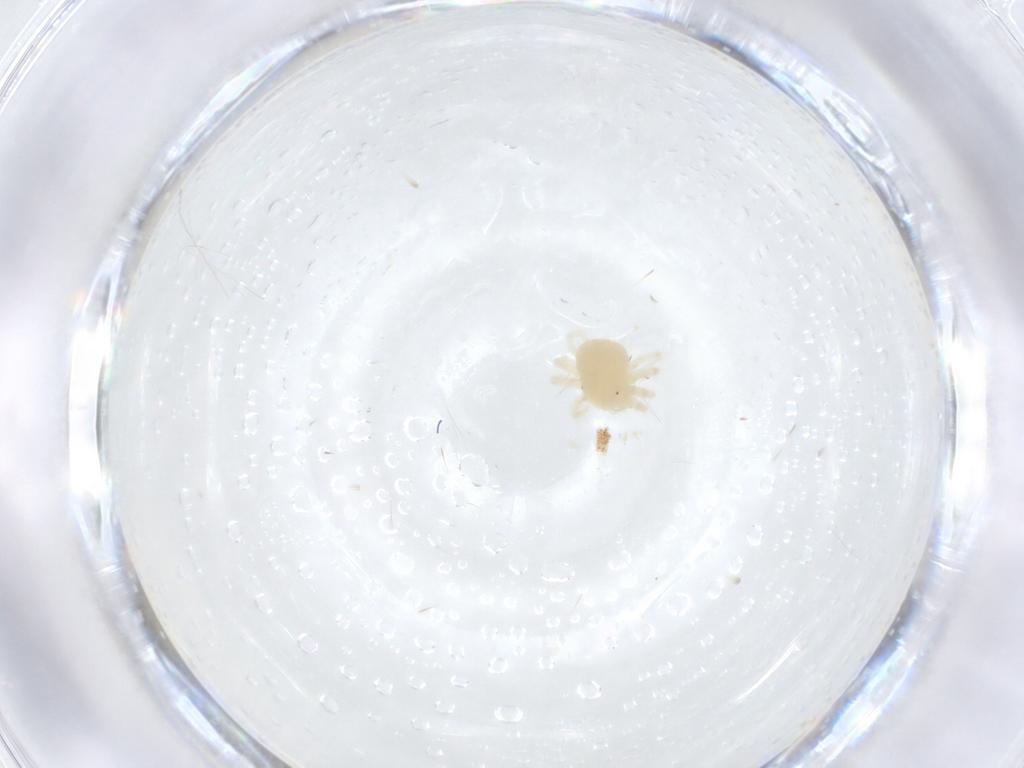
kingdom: Animalia
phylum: Arthropoda
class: Arachnida
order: Trombidiformes
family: Anystidae
